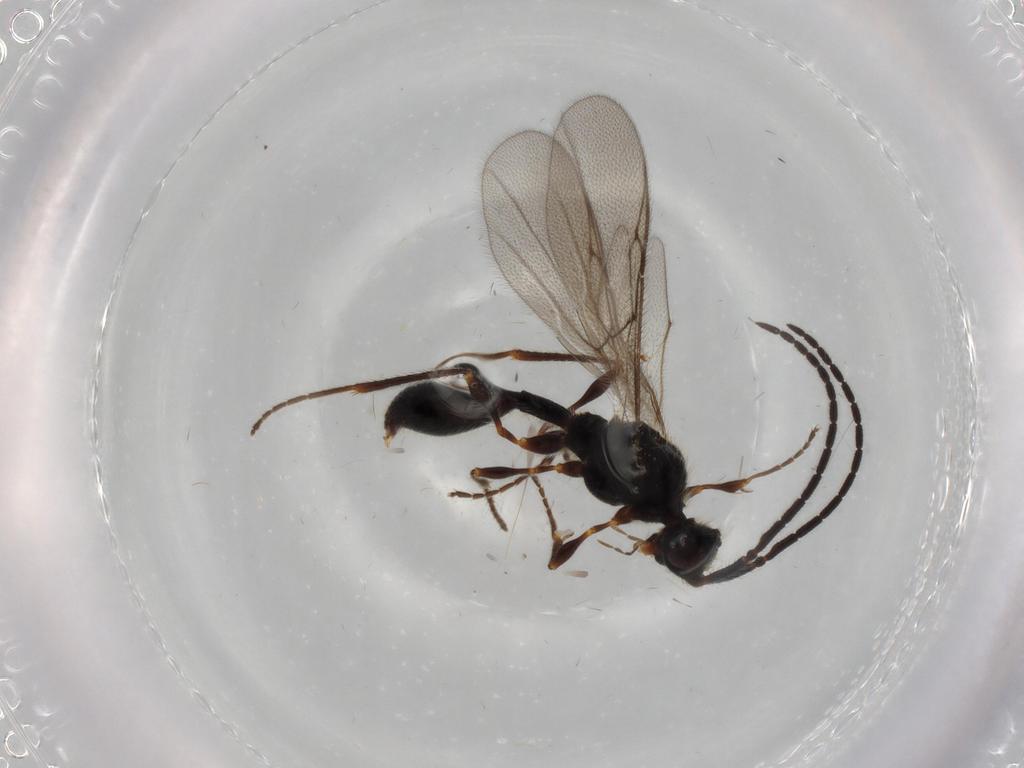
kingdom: Animalia
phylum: Arthropoda
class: Insecta
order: Hymenoptera
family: Diapriidae
